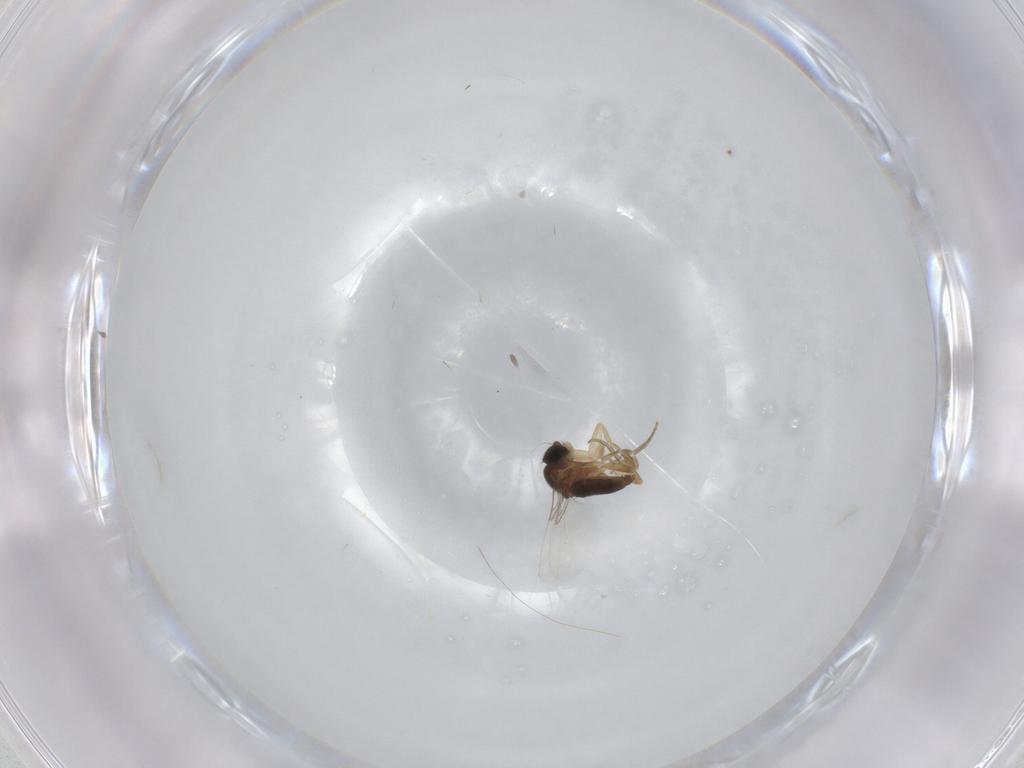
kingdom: Animalia
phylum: Arthropoda
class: Insecta
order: Diptera
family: Phoridae
